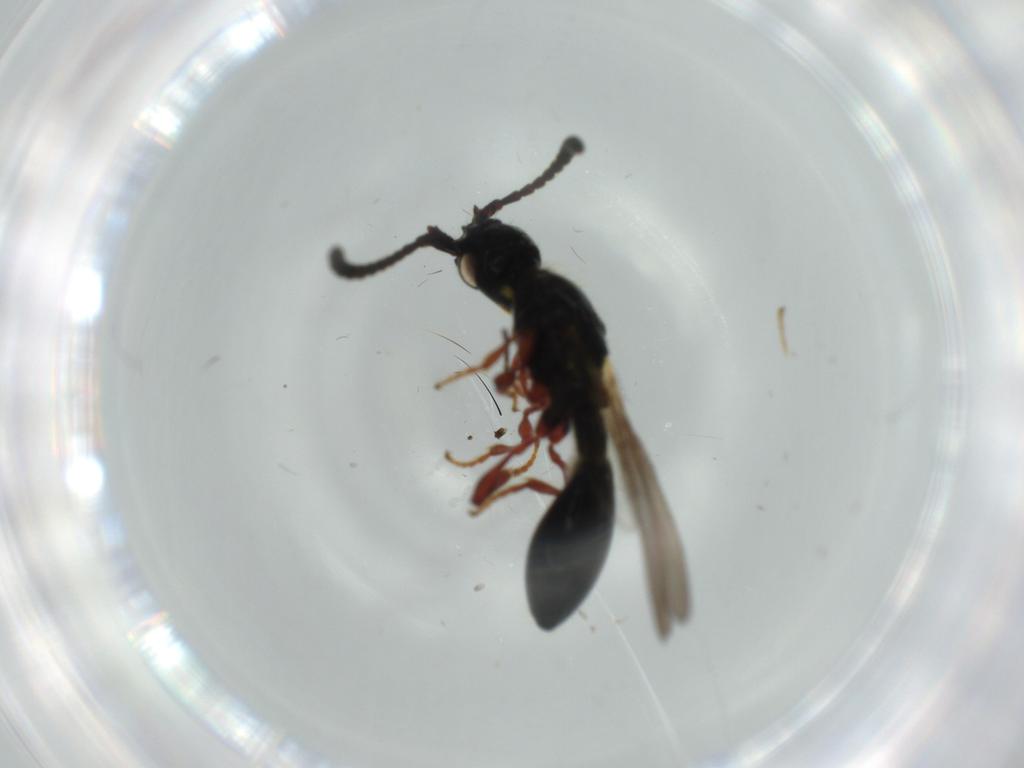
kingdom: Animalia
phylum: Arthropoda
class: Insecta
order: Hymenoptera
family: Pteromalidae
